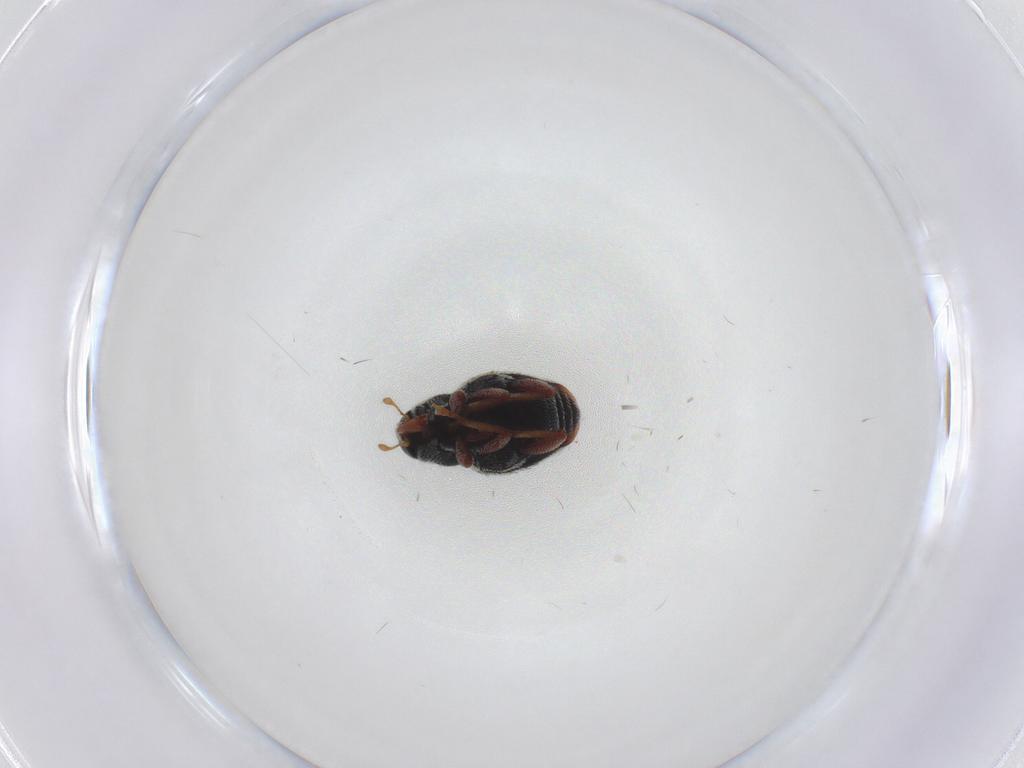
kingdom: Animalia
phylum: Arthropoda
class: Insecta
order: Coleoptera
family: Curculionidae
